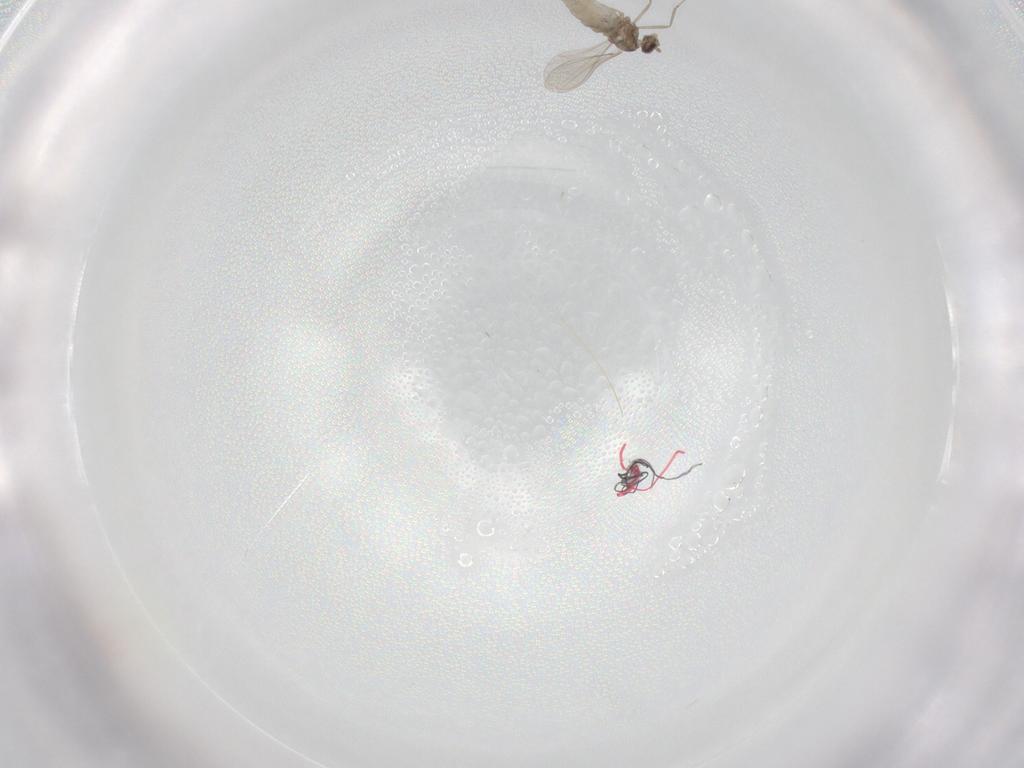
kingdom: Animalia
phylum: Arthropoda
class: Insecta
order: Diptera
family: Cecidomyiidae
